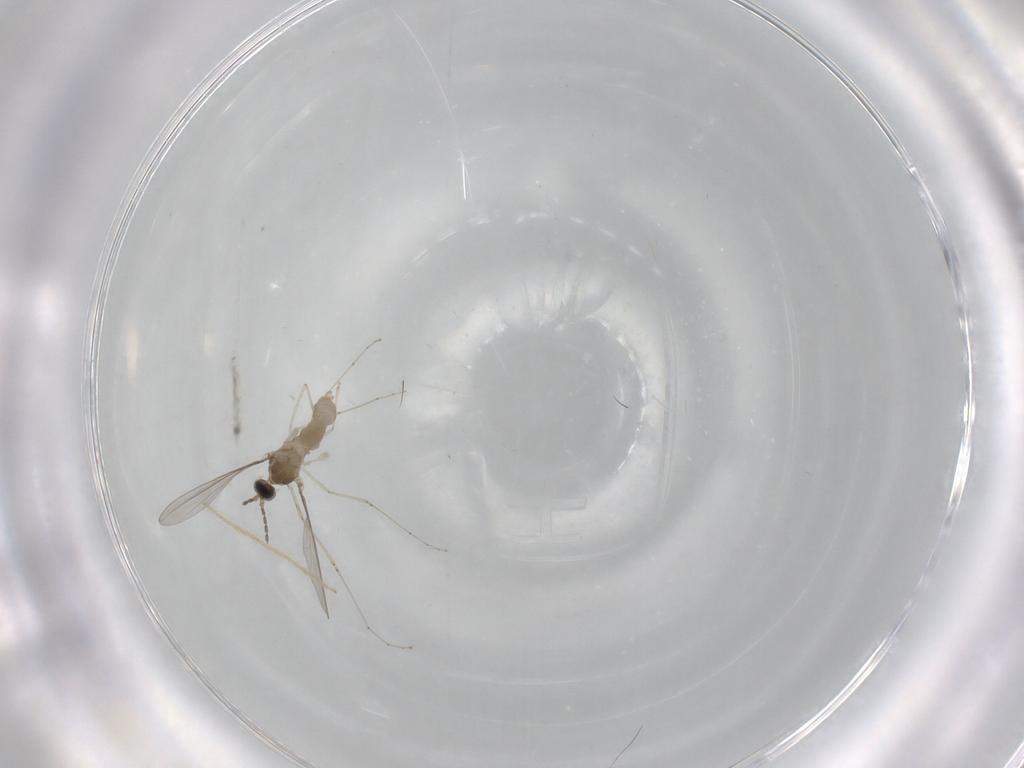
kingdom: Animalia
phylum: Arthropoda
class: Insecta
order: Diptera
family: Chironomidae
